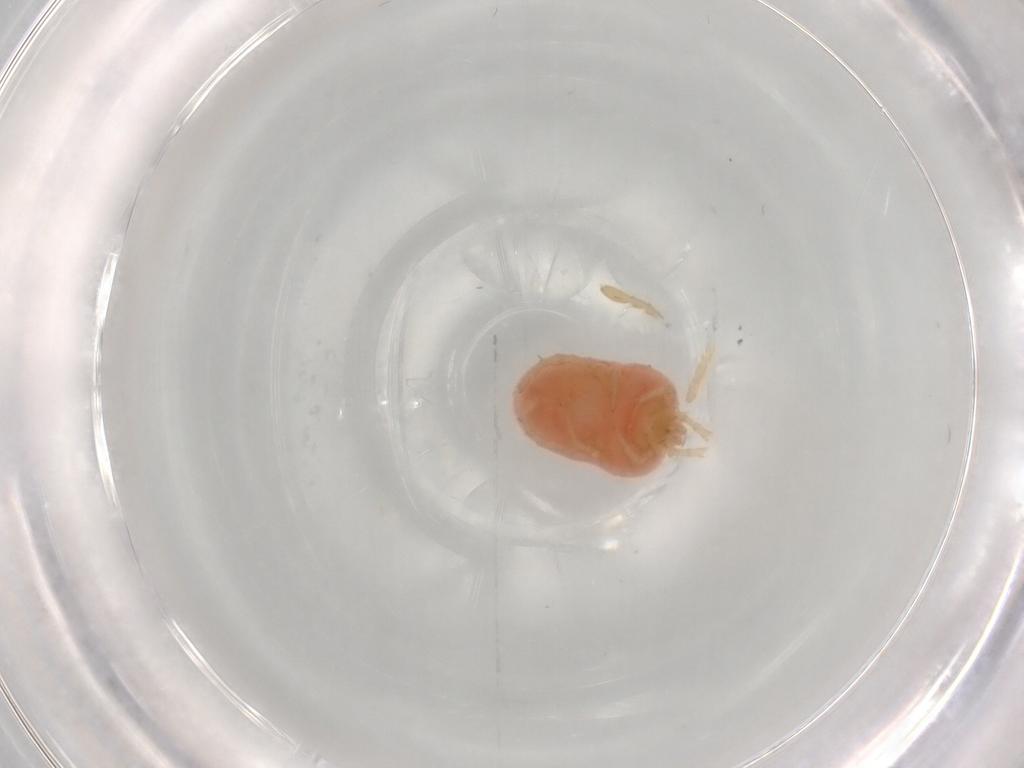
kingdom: Animalia
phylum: Arthropoda
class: Arachnida
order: Trombidiformes
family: Microtrombidiidae
